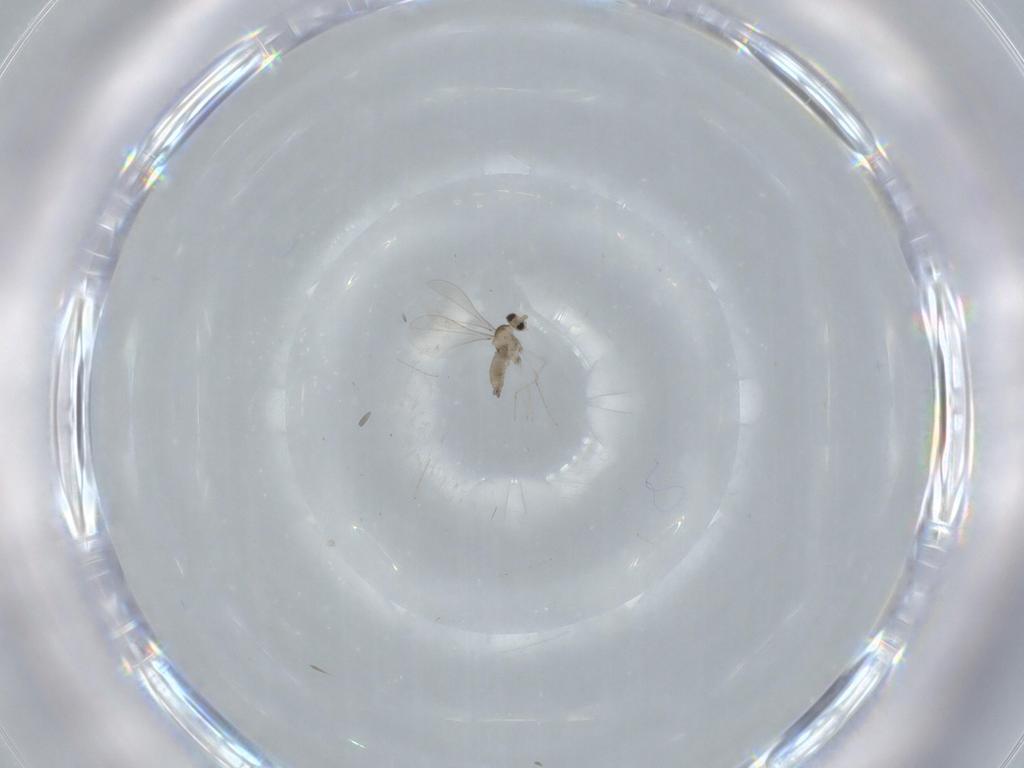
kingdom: Animalia
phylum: Arthropoda
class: Insecta
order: Diptera
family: Cecidomyiidae
